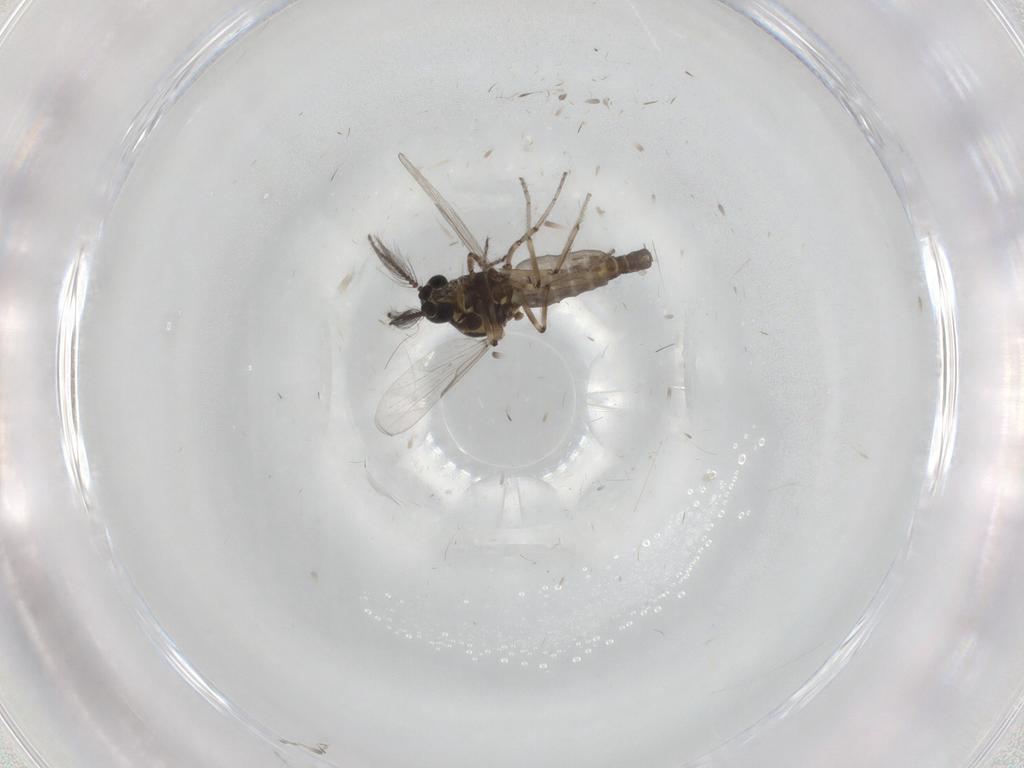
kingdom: Animalia
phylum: Arthropoda
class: Insecta
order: Diptera
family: Ceratopogonidae
